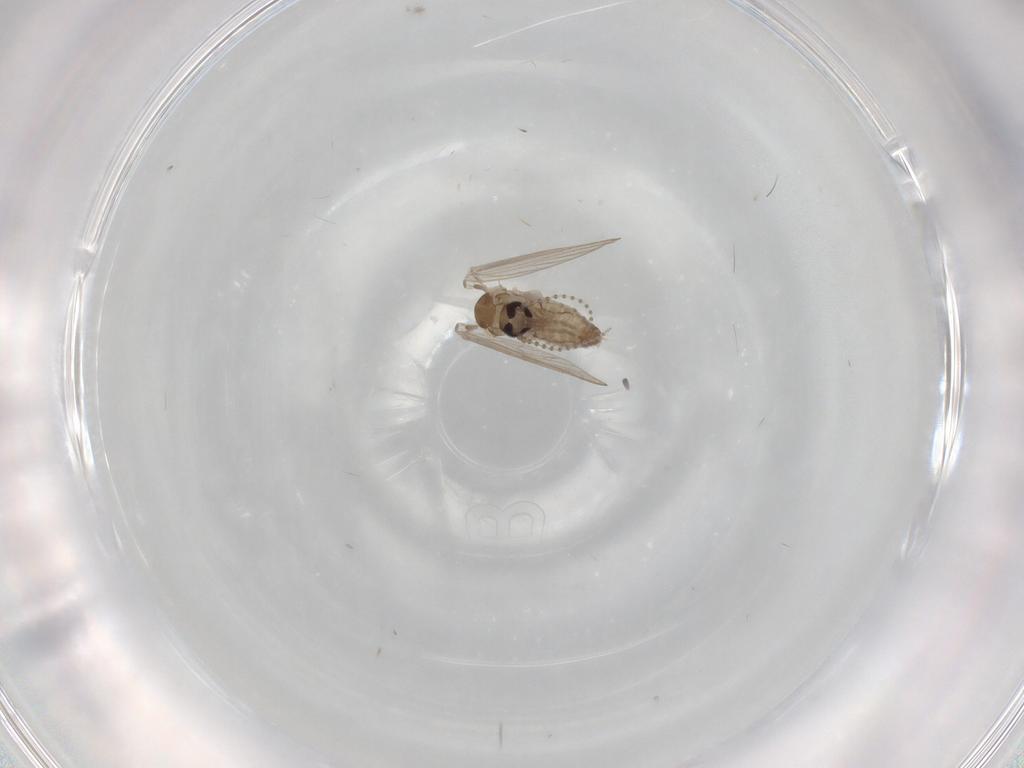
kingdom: Animalia
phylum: Arthropoda
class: Insecta
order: Diptera
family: Psychodidae
